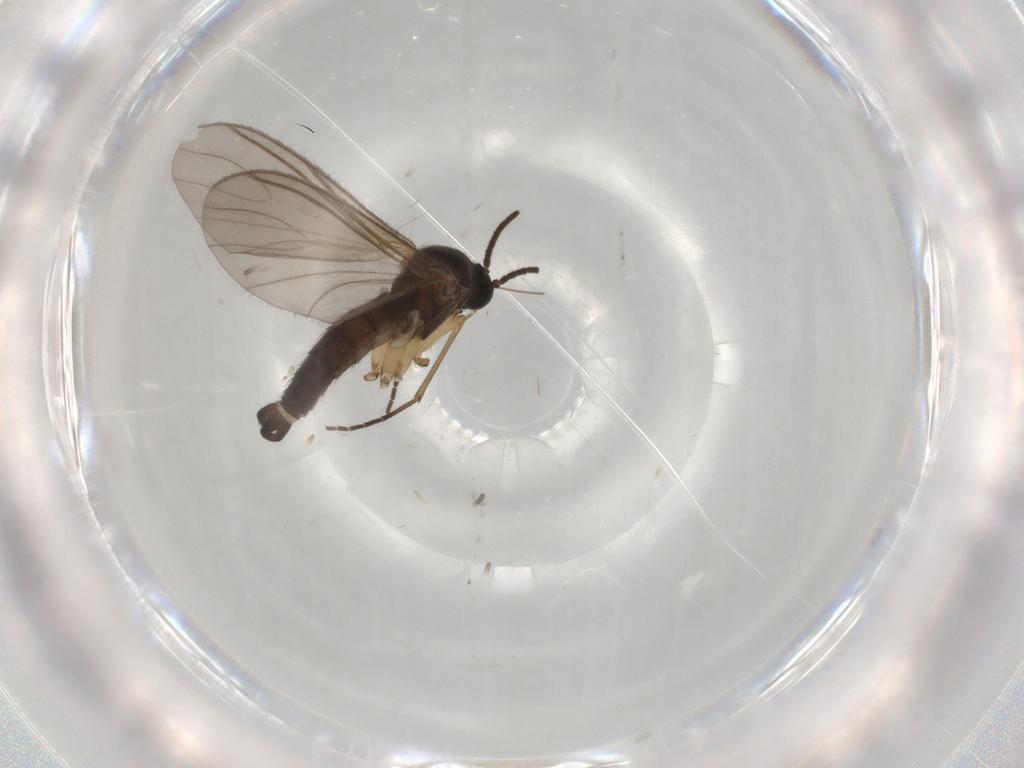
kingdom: Animalia
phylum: Arthropoda
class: Insecta
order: Diptera
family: Sciaridae
